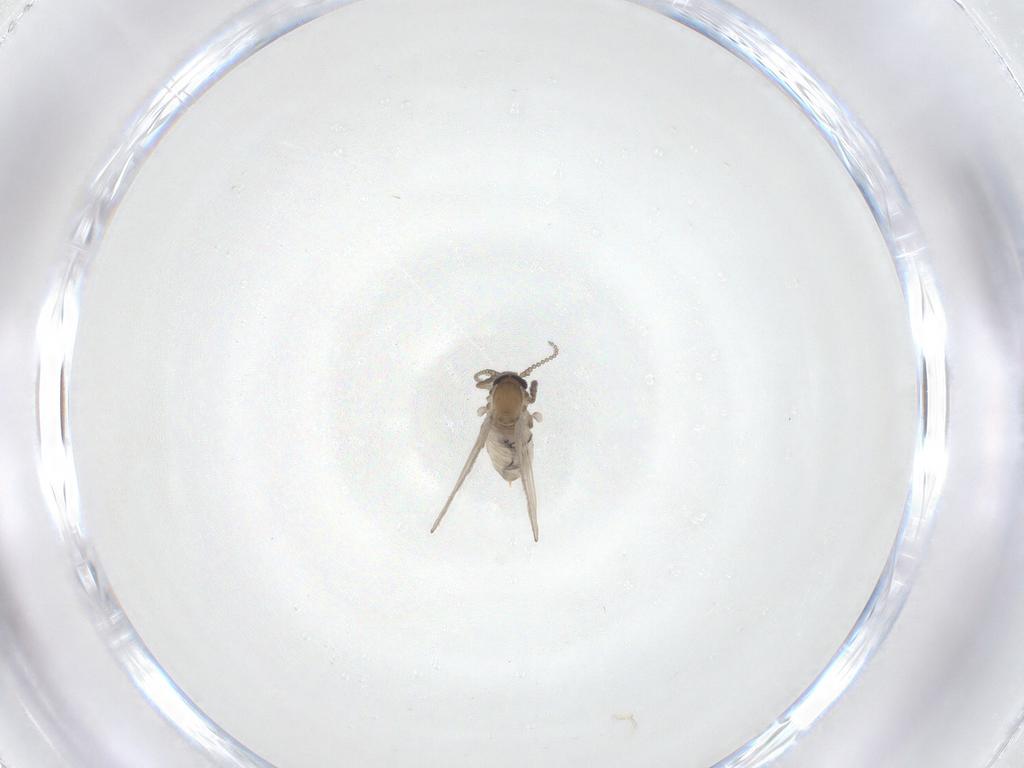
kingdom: Animalia
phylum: Arthropoda
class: Insecta
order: Diptera
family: Psychodidae
